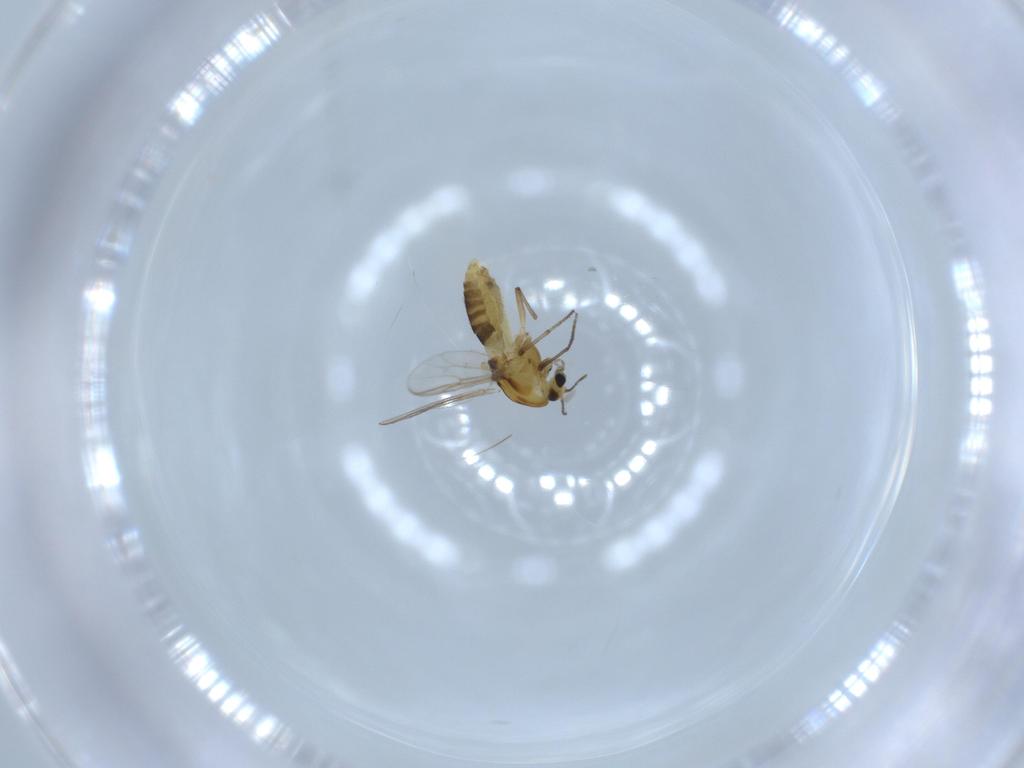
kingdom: Animalia
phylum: Arthropoda
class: Insecta
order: Diptera
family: Chironomidae
